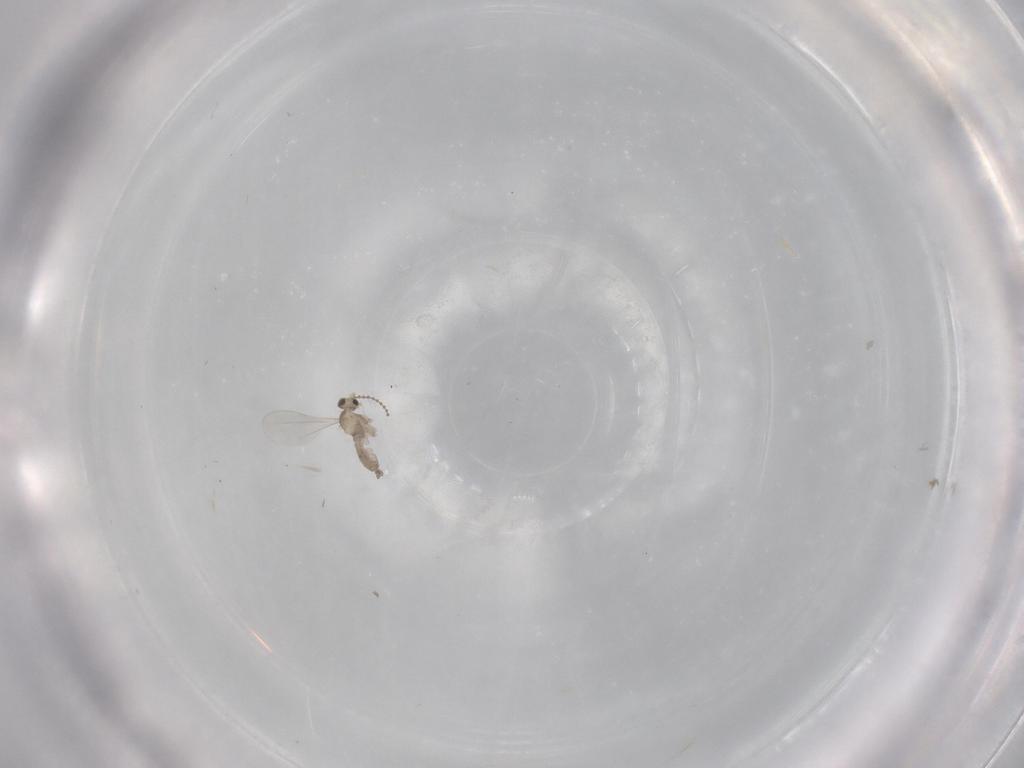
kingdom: Animalia
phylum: Arthropoda
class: Insecta
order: Diptera
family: Cecidomyiidae
